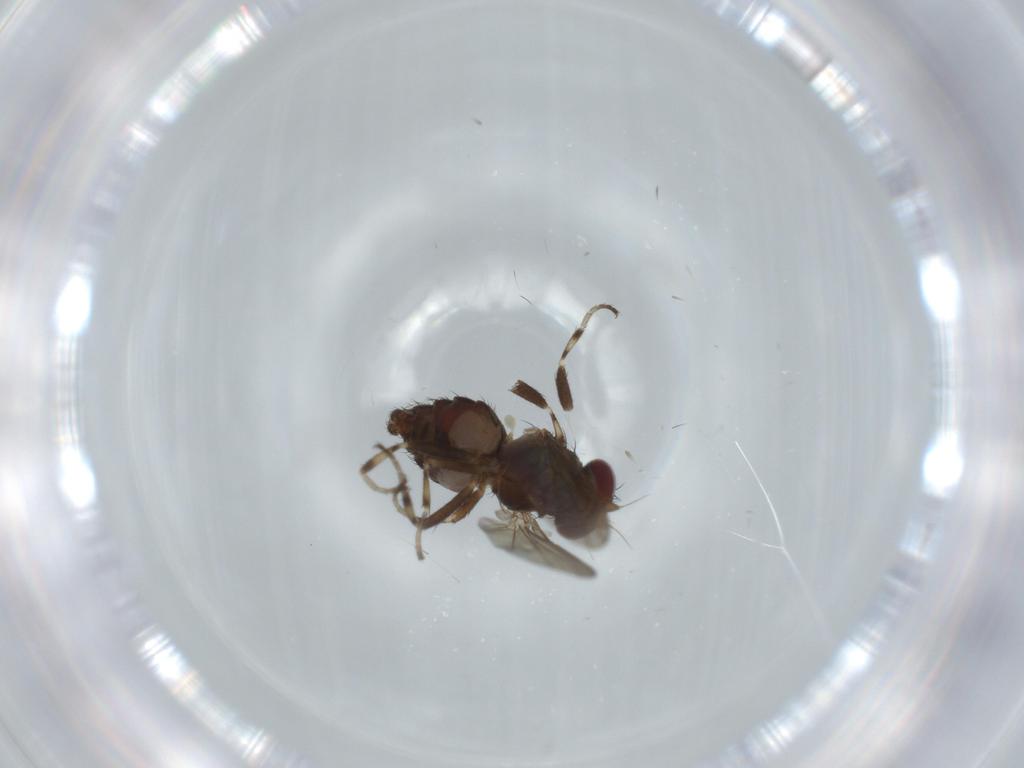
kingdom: Animalia
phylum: Arthropoda
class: Insecta
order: Diptera
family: Heleomyzidae
